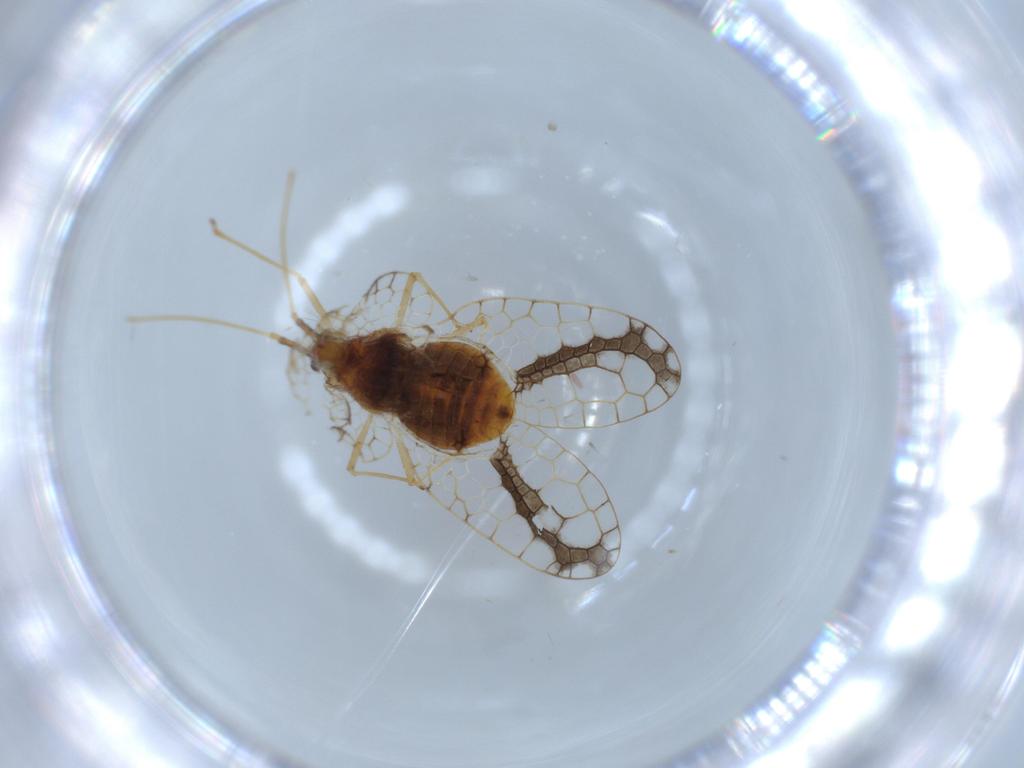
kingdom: Animalia
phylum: Arthropoda
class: Insecta
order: Hemiptera
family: Tingidae
